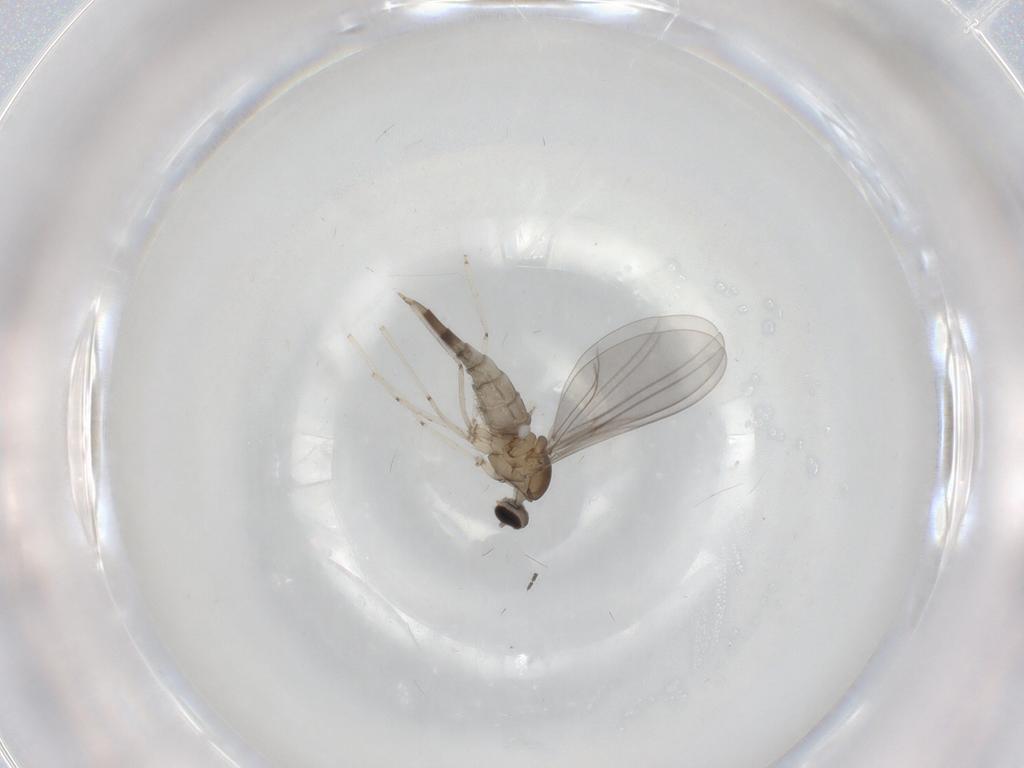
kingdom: Animalia
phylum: Arthropoda
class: Insecta
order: Diptera
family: Cecidomyiidae
